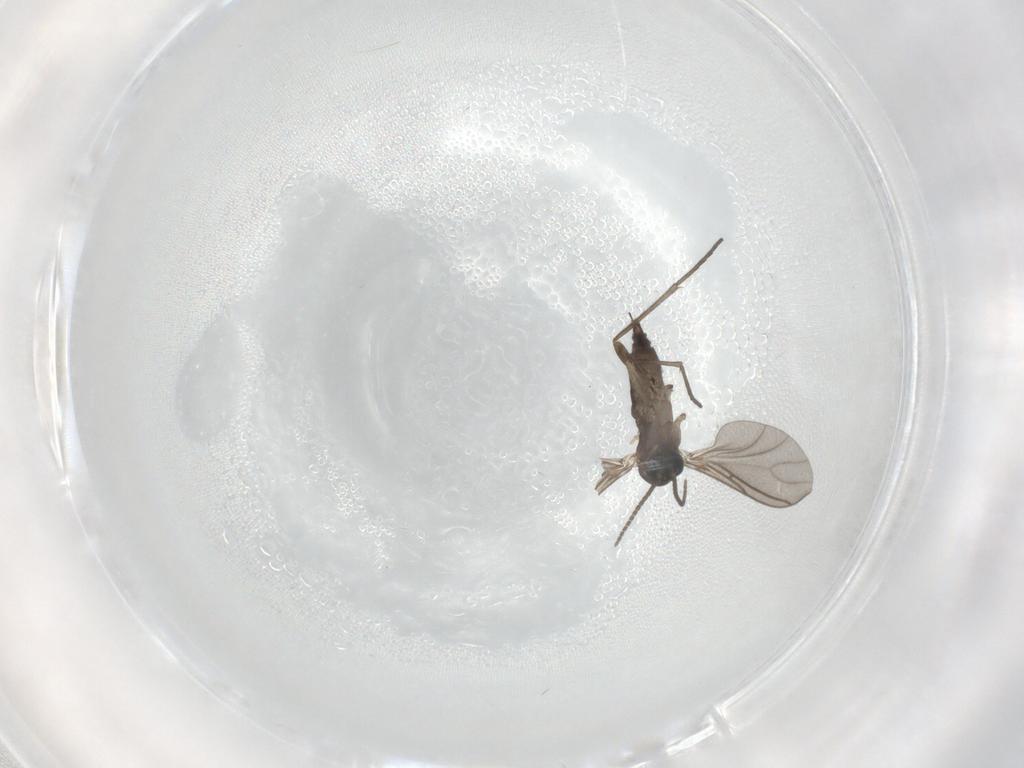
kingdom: Animalia
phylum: Arthropoda
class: Insecta
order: Diptera
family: Sciaridae
